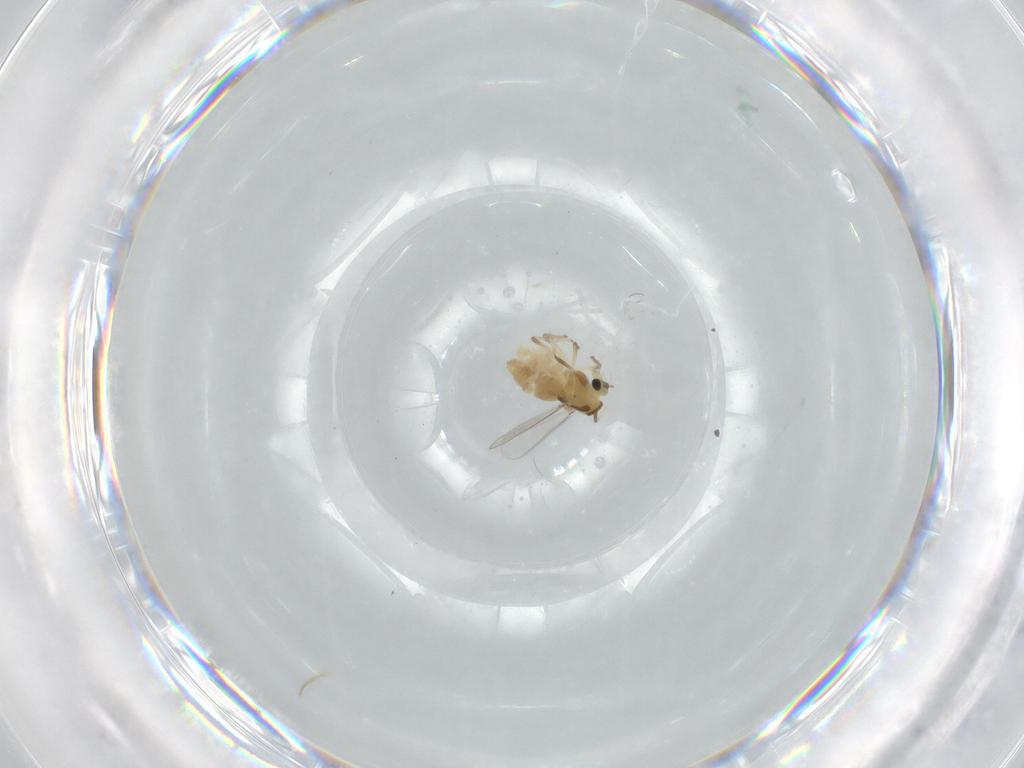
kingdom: Animalia
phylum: Arthropoda
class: Insecta
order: Diptera
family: Chironomidae
